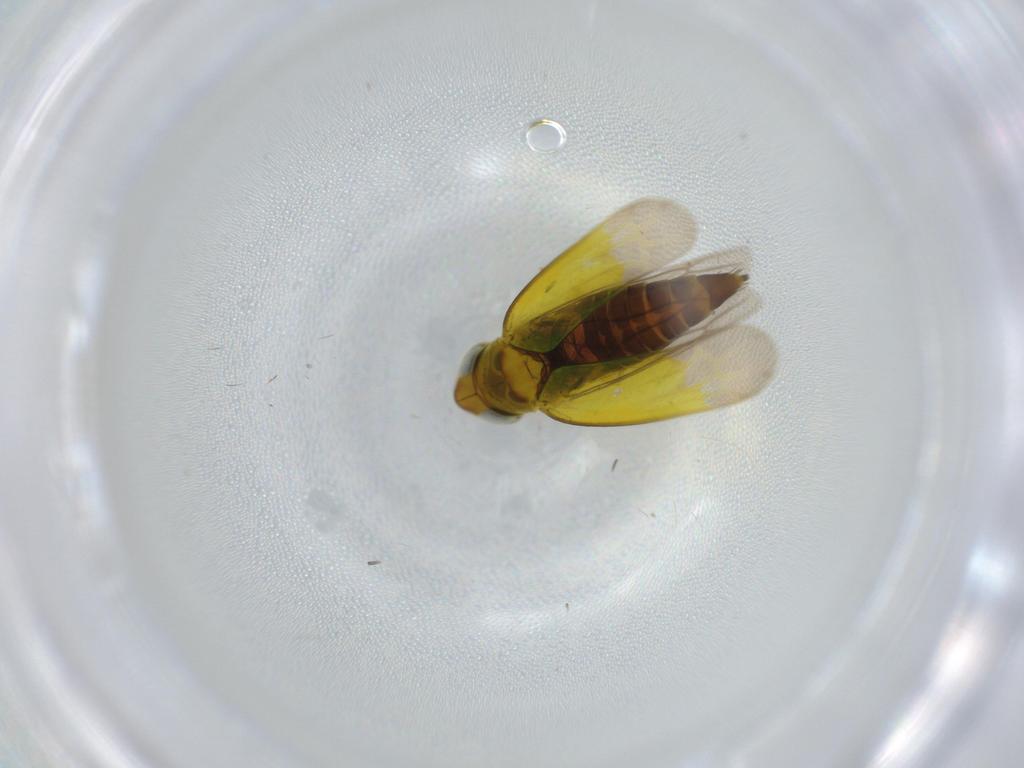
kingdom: Animalia
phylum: Arthropoda
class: Insecta
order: Hemiptera
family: Cicadellidae
